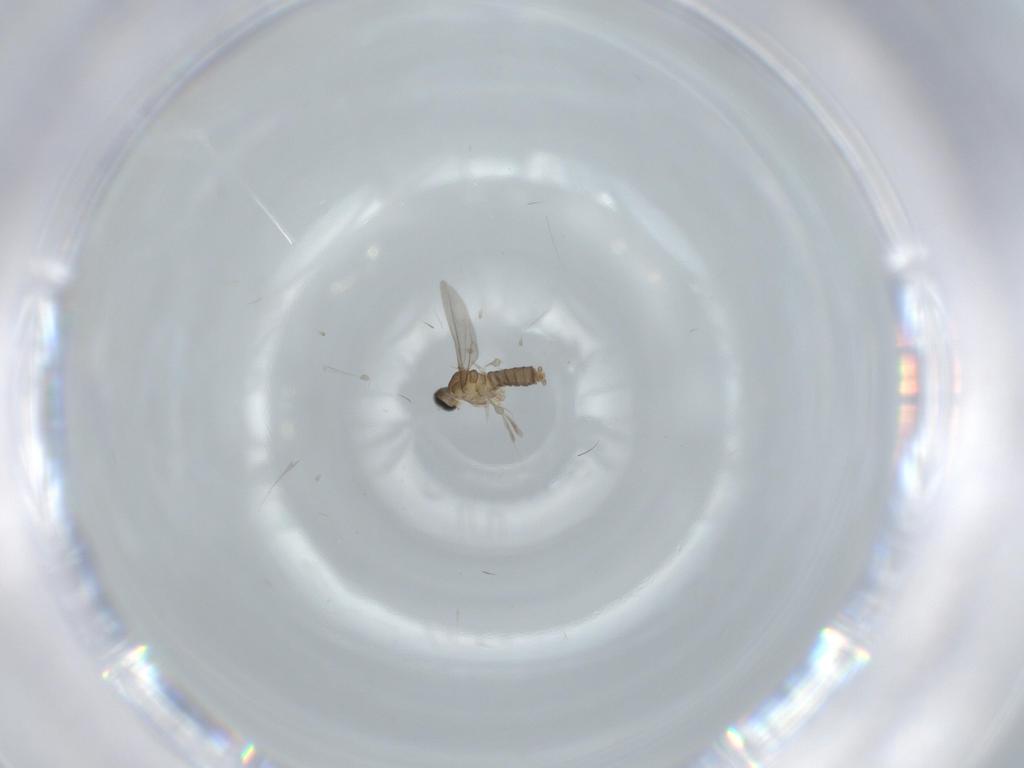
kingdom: Animalia
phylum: Arthropoda
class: Insecta
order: Diptera
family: Cecidomyiidae
